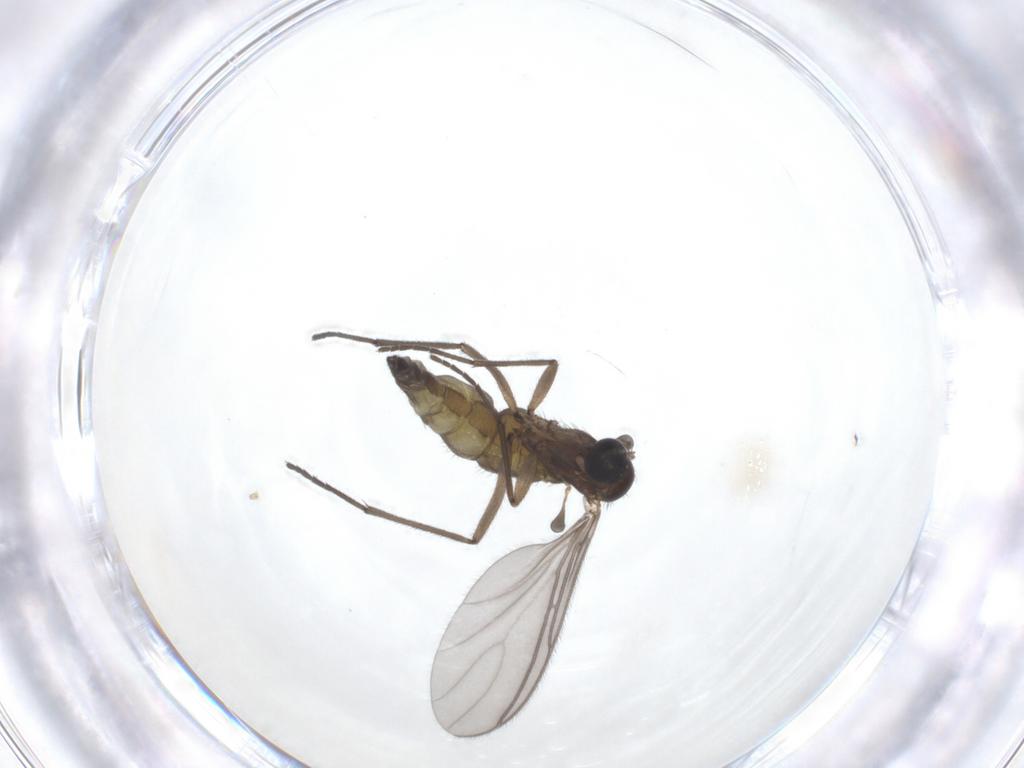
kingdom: Animalia
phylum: Arthropoda
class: Insecta
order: Diptera
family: Sciaridae
